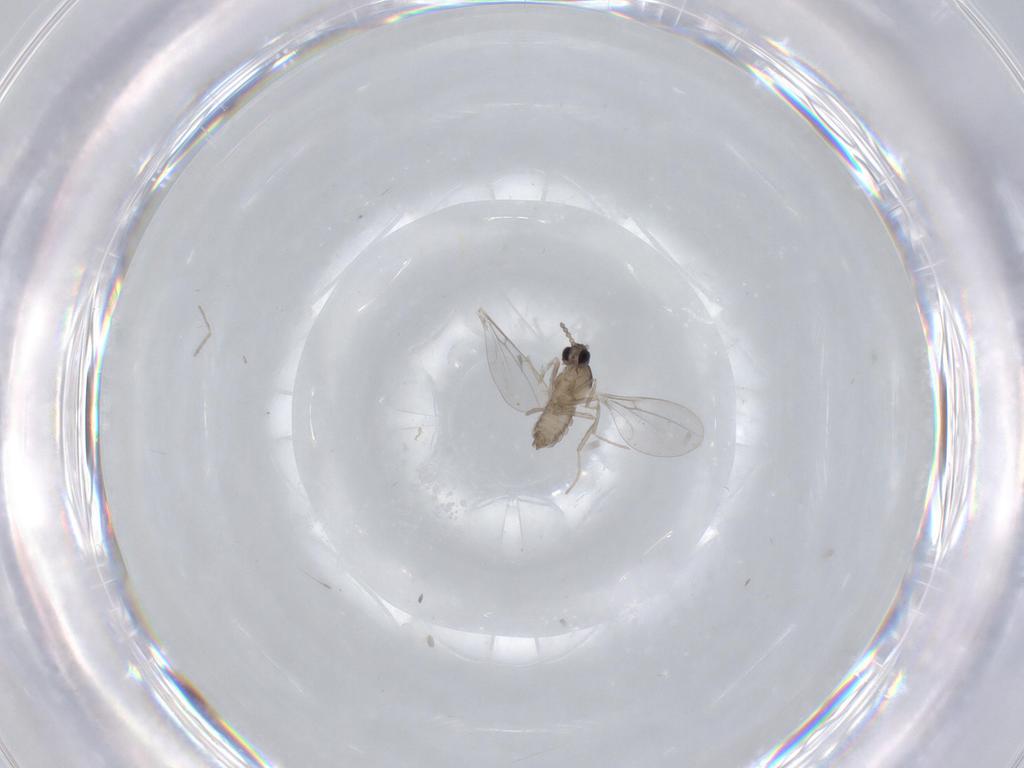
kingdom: Animalia
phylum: Arthropoda
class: Insecta
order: Diptera
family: Cecidomyiidae
